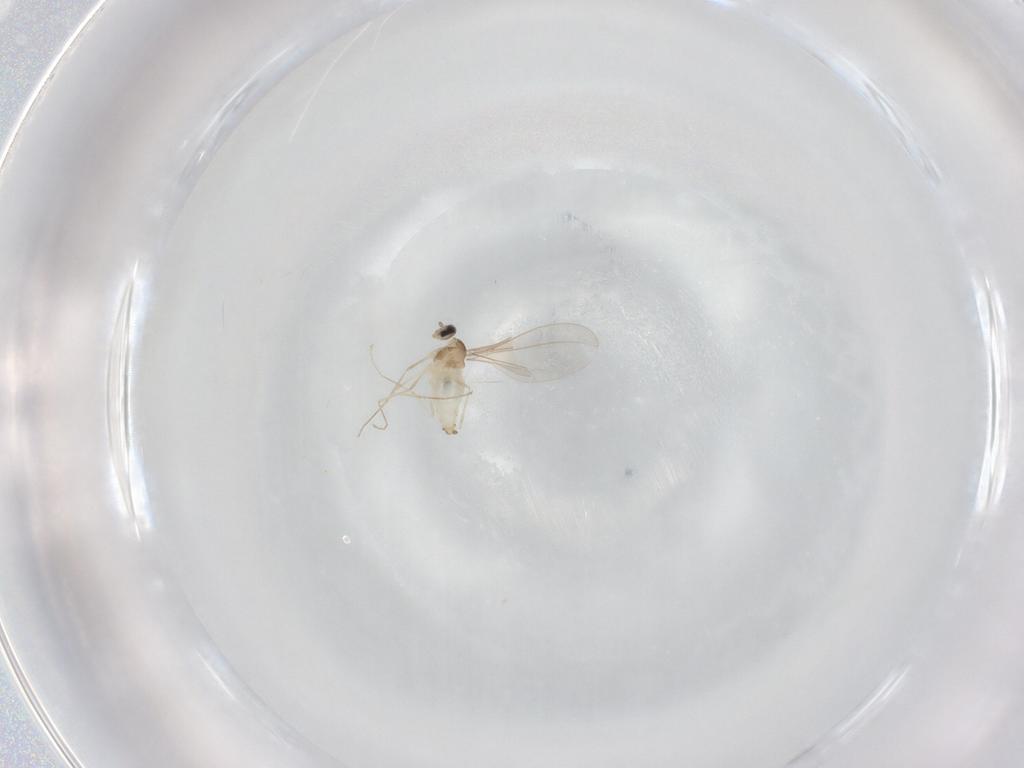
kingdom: Animalia
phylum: Arthropoda
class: Insecta
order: Diptera
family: Cecidomyiidae
